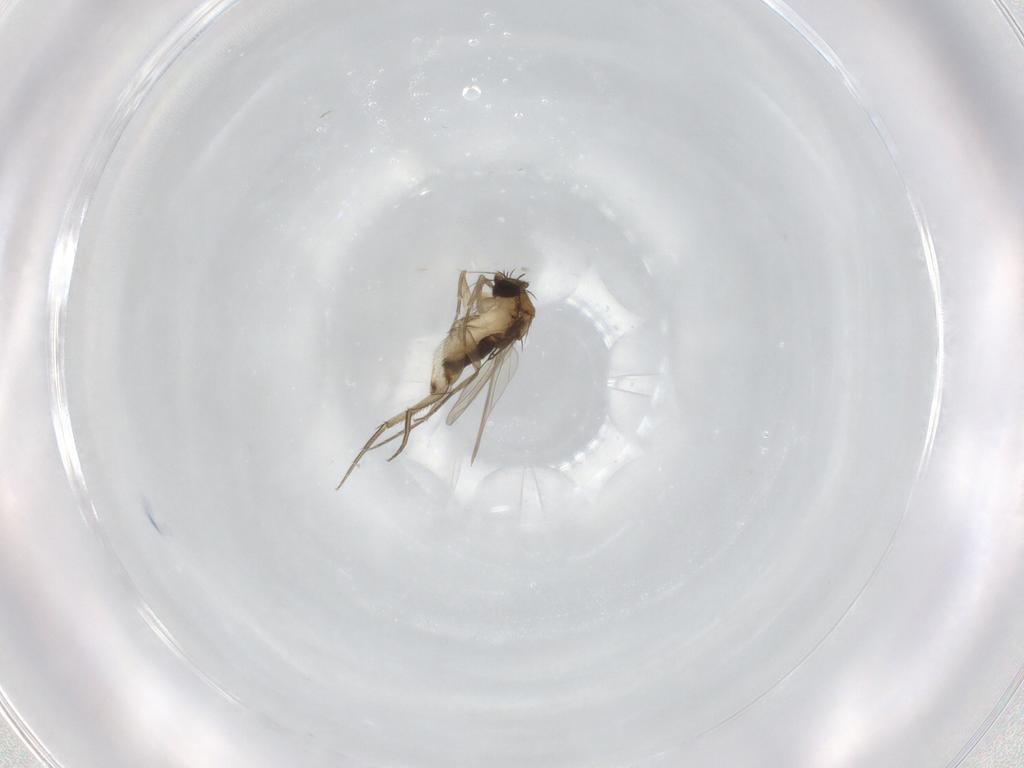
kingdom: Animalia
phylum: Arthropoda
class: Insecta
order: Diptera
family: Psychodidae
